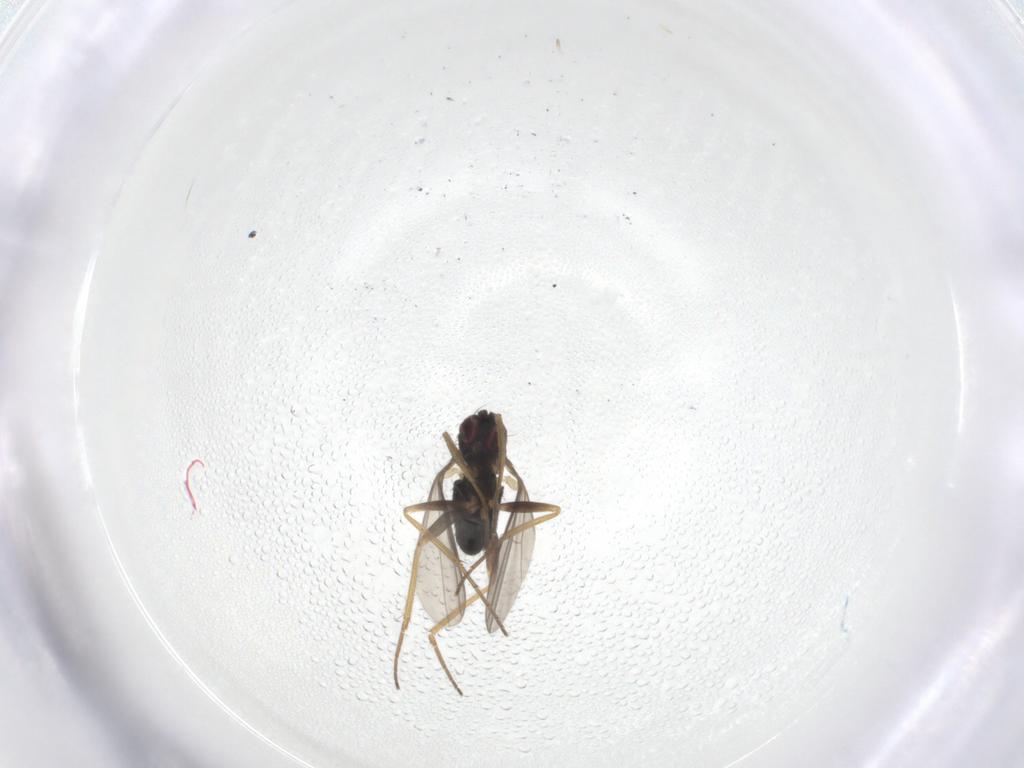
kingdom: Animalia
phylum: Arthropoda
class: Insecta
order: Diptera
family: Dolichopodidae
